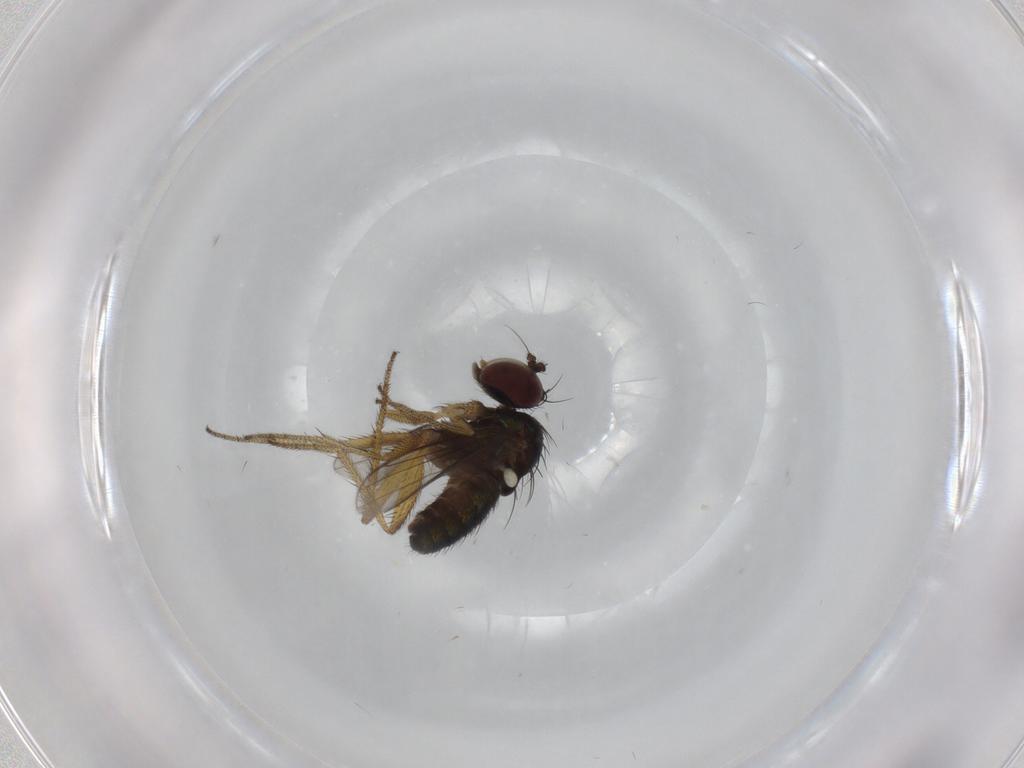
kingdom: Animalia
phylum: Arthropoda
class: Insecta
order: Diptera
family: Dolichopodidae
